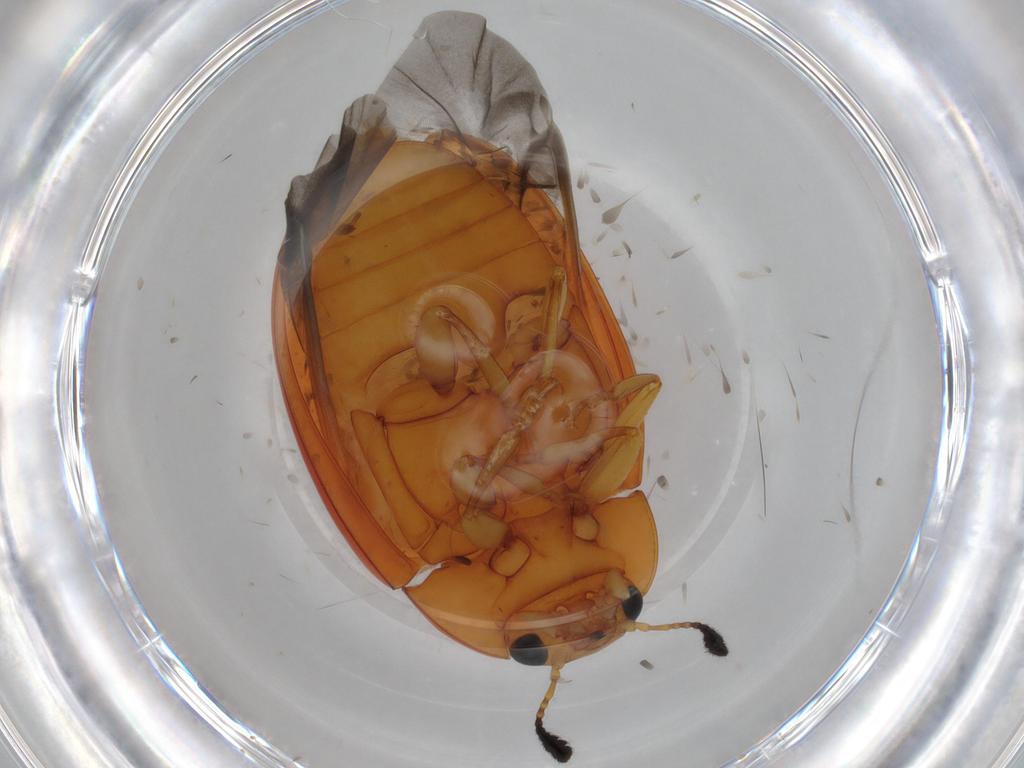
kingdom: Animalia
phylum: Arthropoda
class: Insecta
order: Coleoptera
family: Erotylidae
